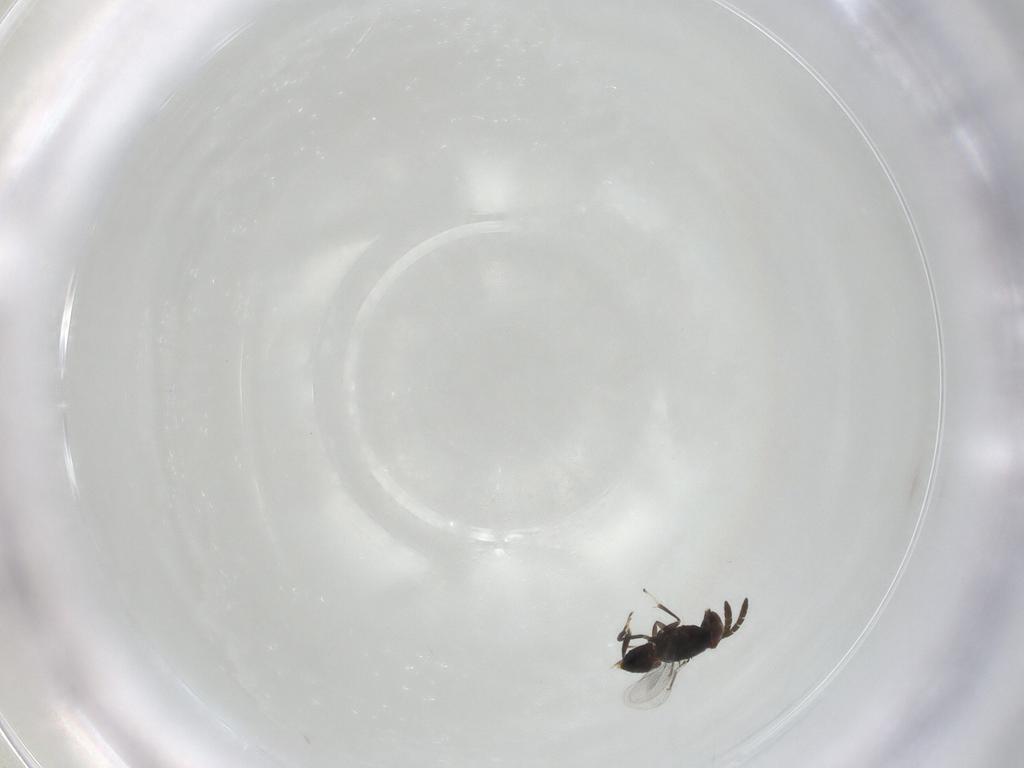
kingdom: Animalia
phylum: Arthropoda
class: Insecta
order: Hymenoptera
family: Aphelinidae
